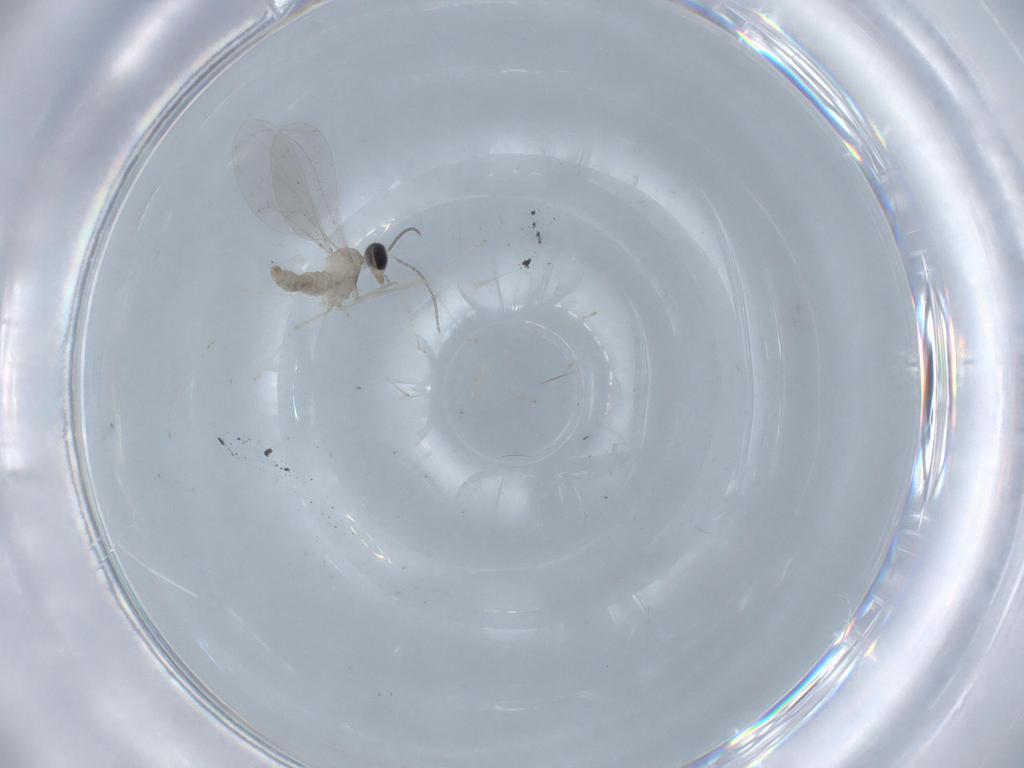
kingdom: Animalia
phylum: Arthropoda
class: Insecta
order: Diptera
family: Cecidomyiidae
